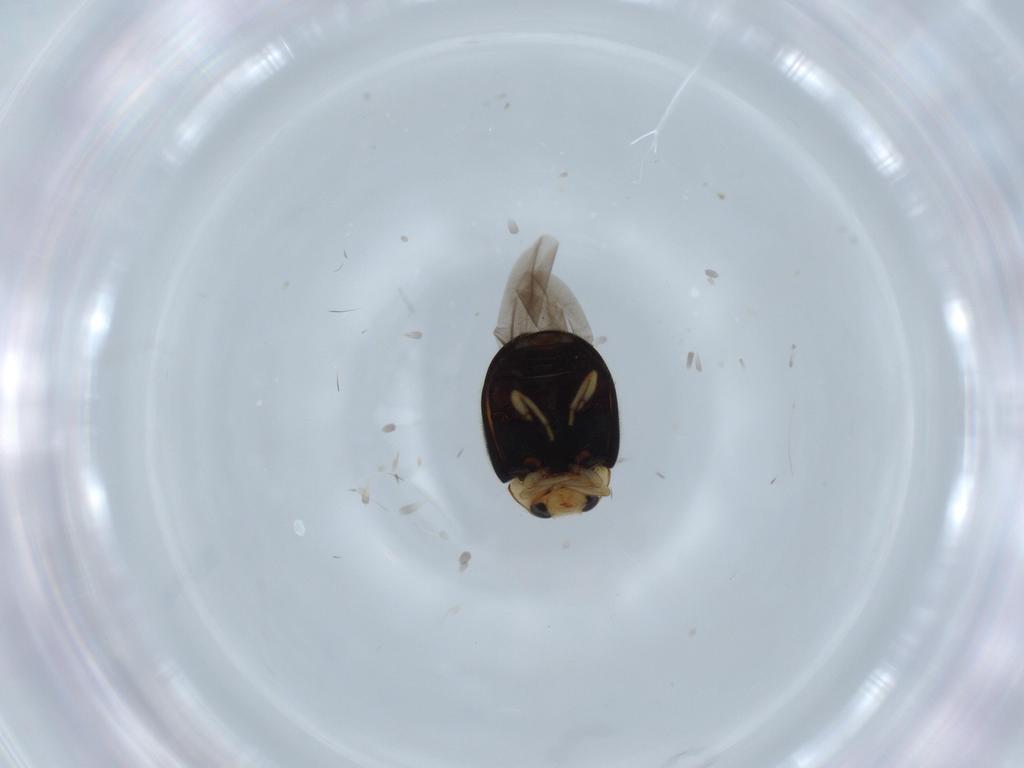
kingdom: Animalia
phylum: Arthropoda
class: Insecta
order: Coleoptera
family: Coccinellidae
